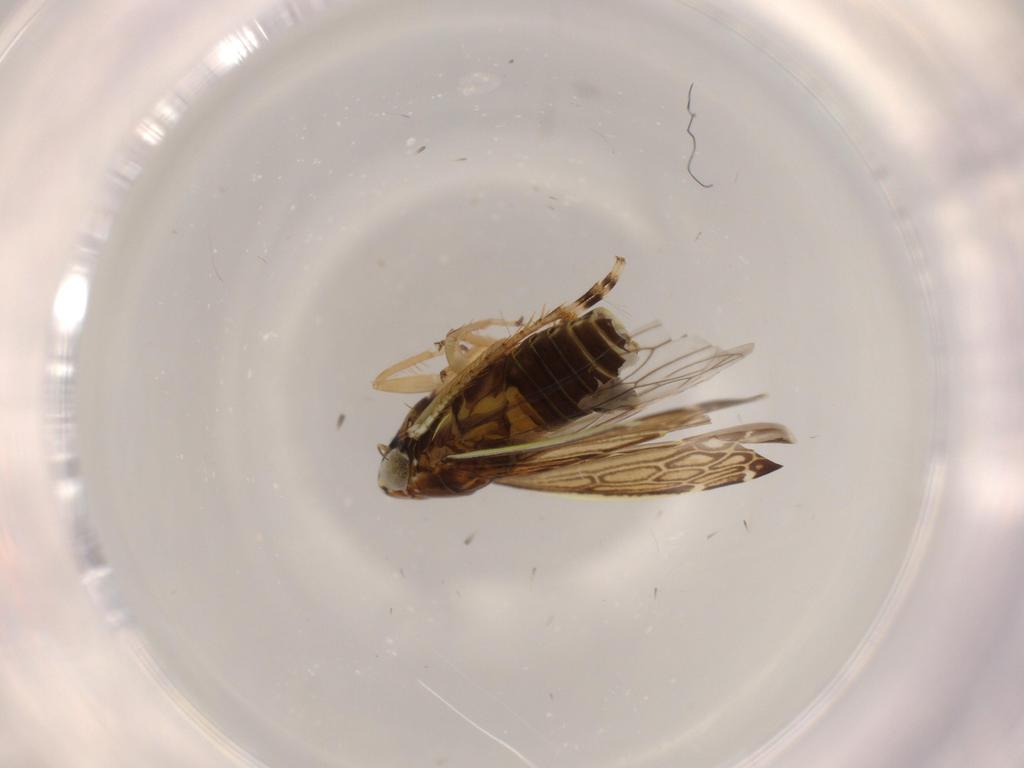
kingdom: Animalia
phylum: Arthropoda
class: Insecta
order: Hemiptera
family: Cicadellidae
